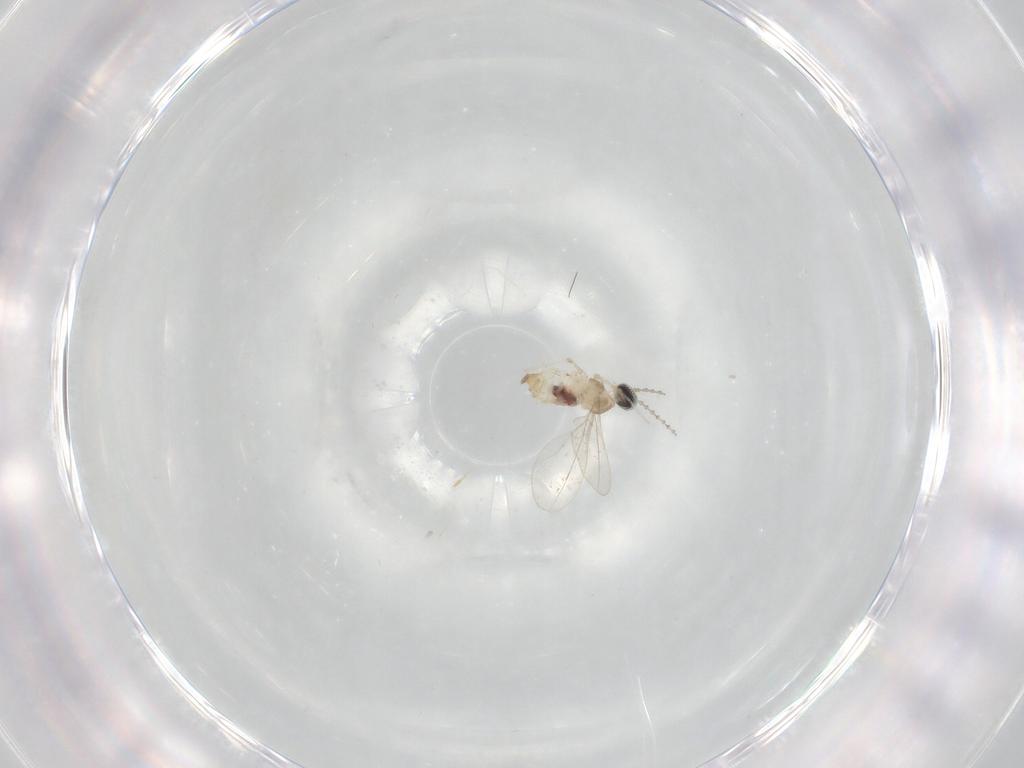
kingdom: Animalia
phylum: Arthropoda
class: Insecta
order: Diptera
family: Cecidomyiidae
